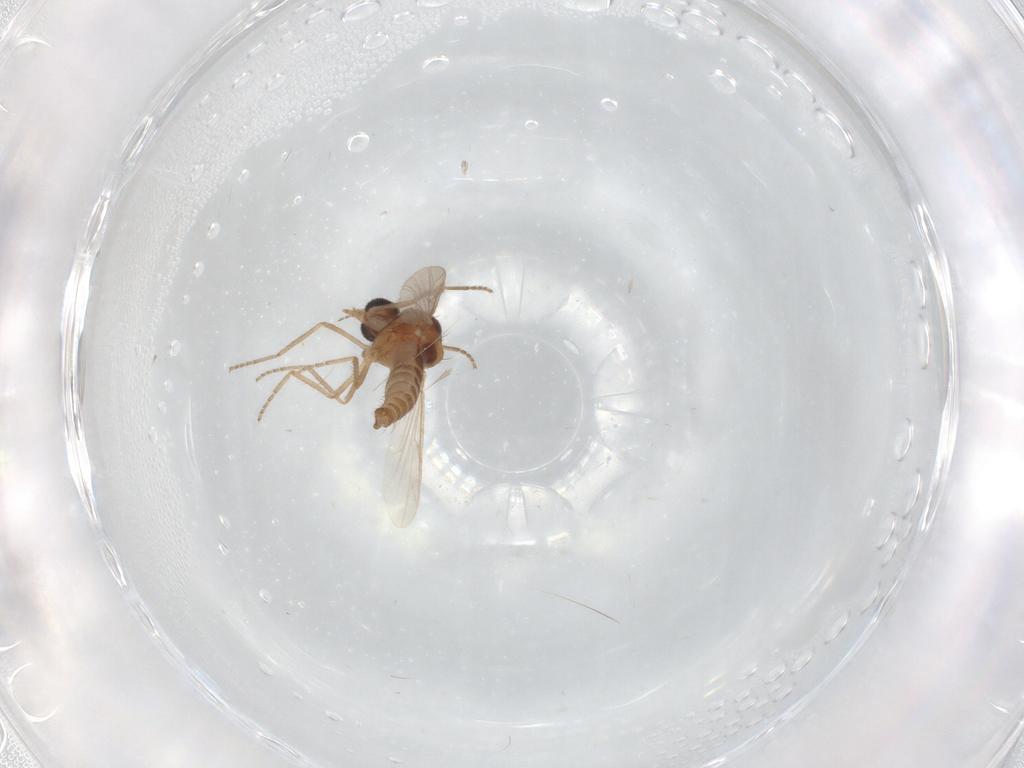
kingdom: Animalia
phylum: Arthropoda
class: Insecta
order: Diptera
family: Ceratopogonidae
